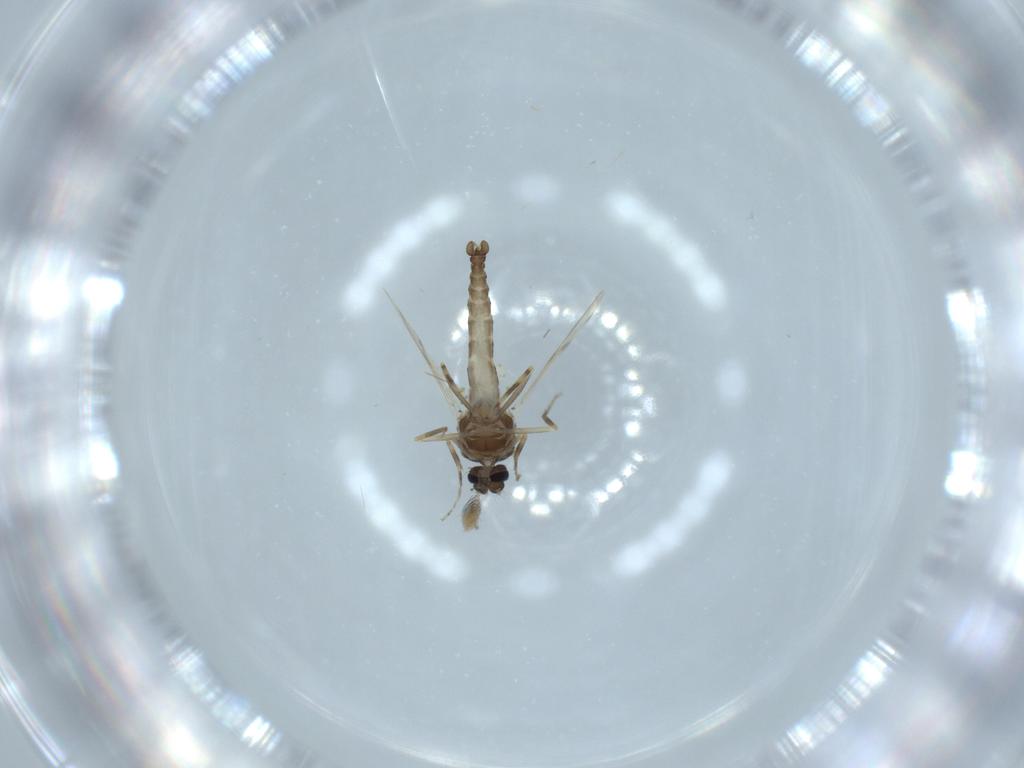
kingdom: Animalia
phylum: Arthropoda
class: Insecta
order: Diptera
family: Ceratopogonidae
